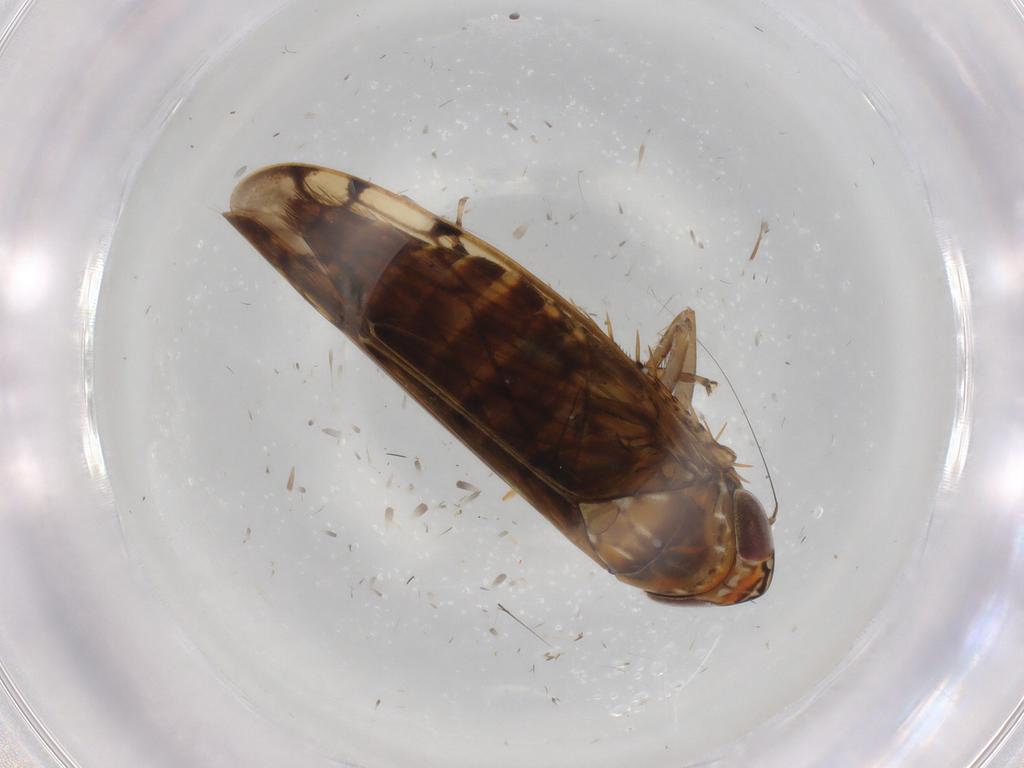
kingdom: Animalia
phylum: Arthropoda
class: Insecta
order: Hemiptera
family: Cicadellidae
